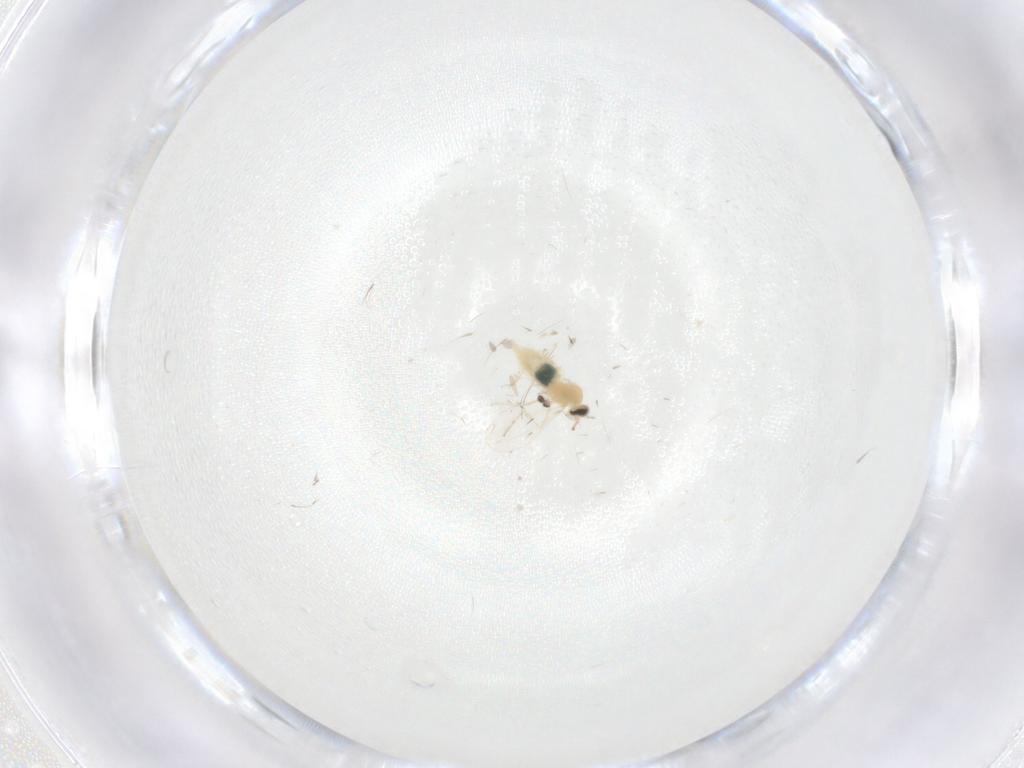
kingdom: Animalia
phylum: Arthropoda
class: Insecta
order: Diptera
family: Cecidomyiidae
